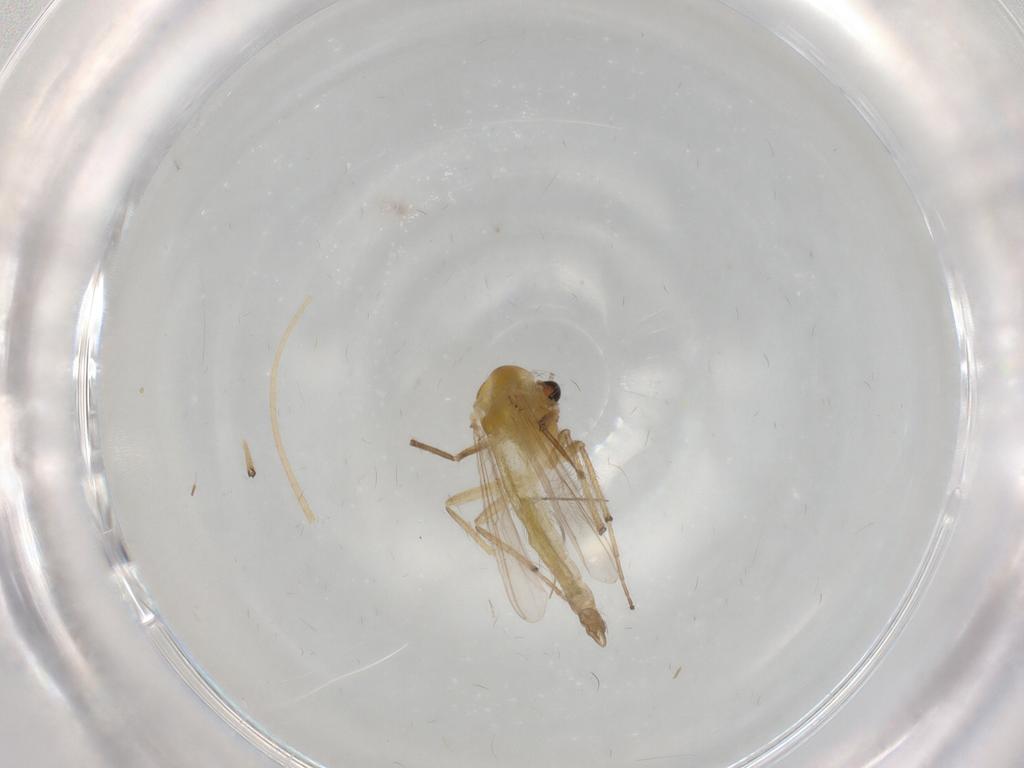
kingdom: Animalia
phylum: Arthropoda
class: Insecta
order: Diptera
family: Chironomidae
